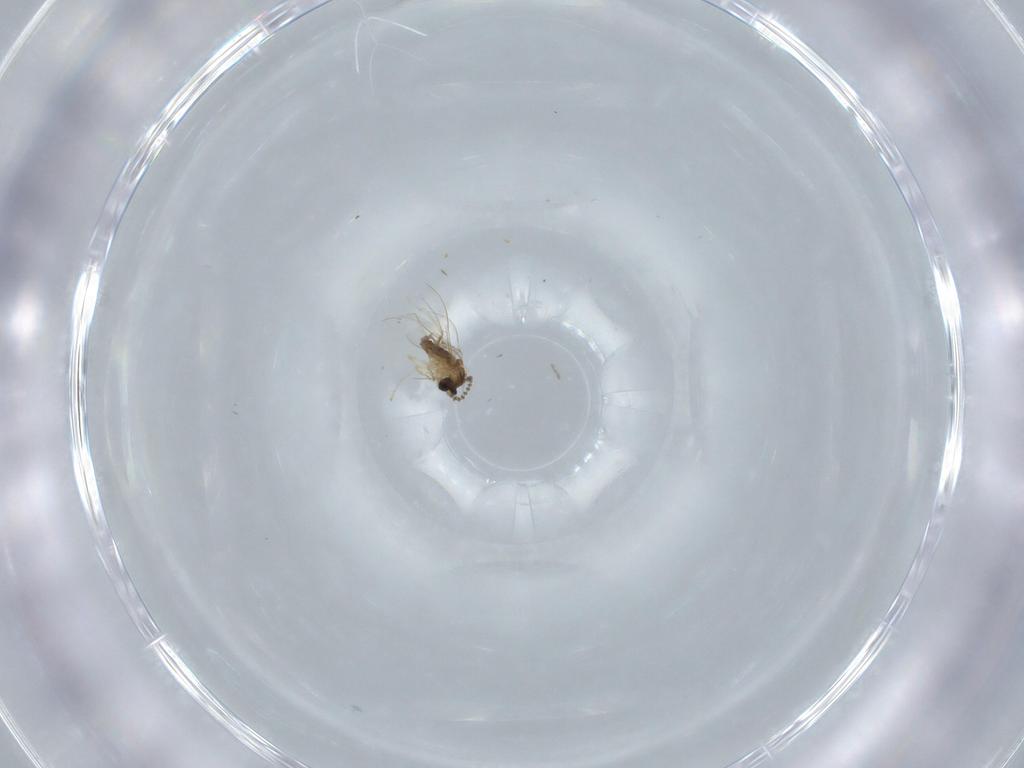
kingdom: Animalia
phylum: Arthropoda
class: Insecta
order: Diptera
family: Cecidomyiidae
